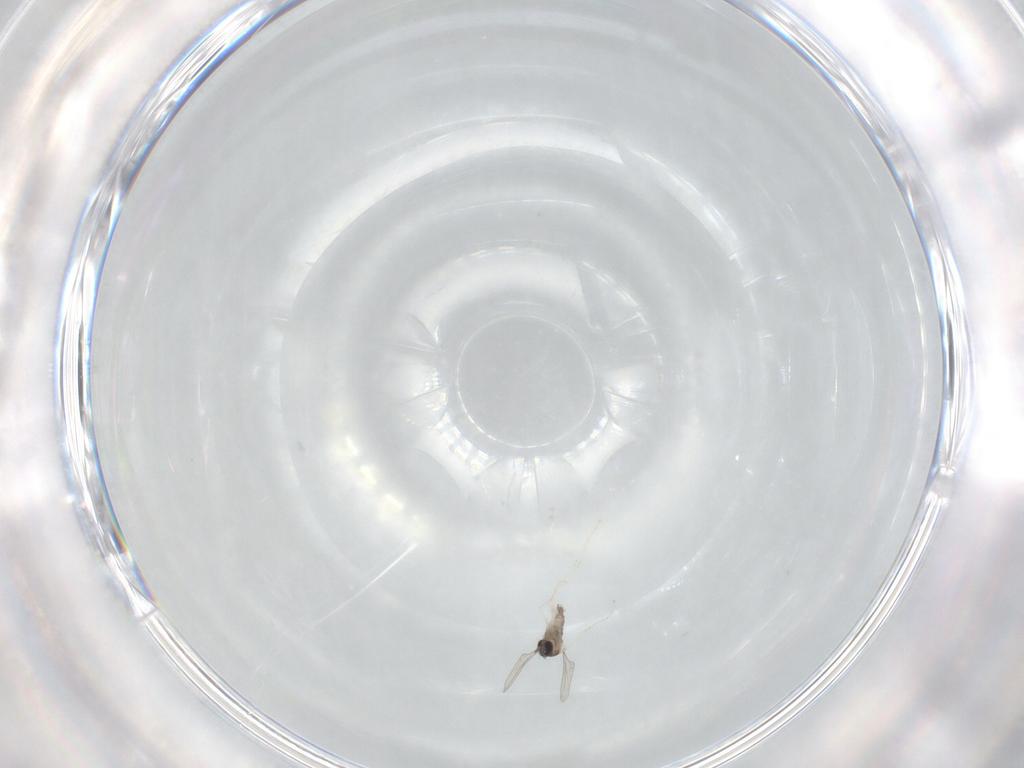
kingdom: Animalia
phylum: Arthropoda
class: Insecta
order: Diptera
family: Cecidomyiidae
